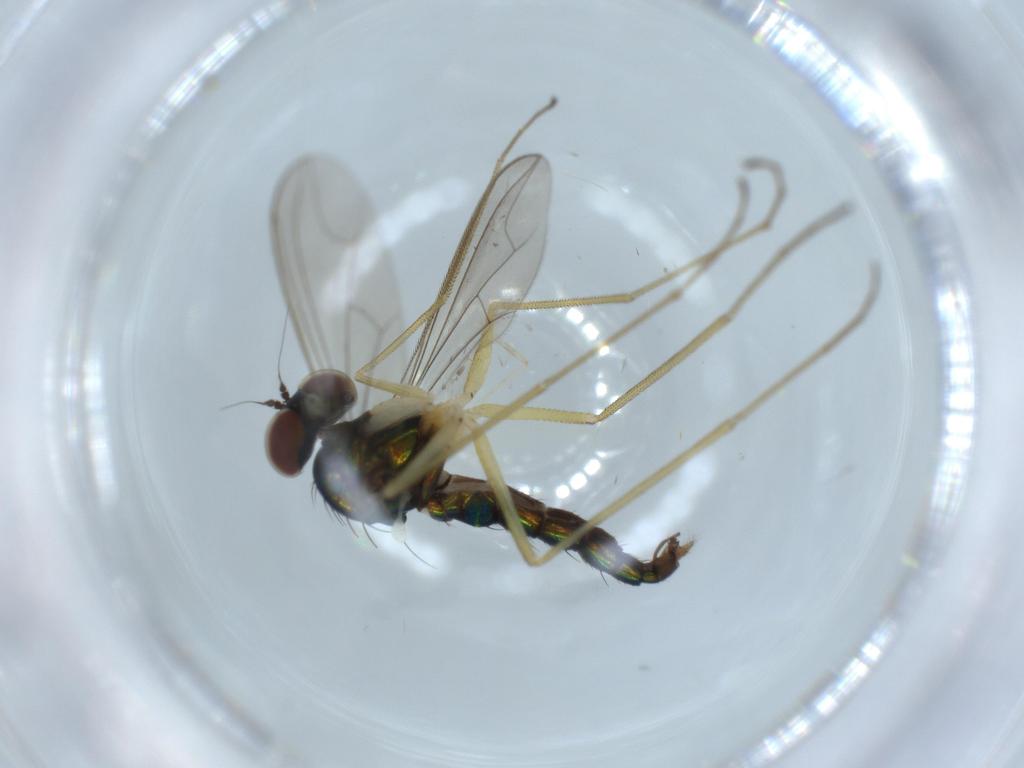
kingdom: Animalia
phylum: Arthropoda
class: Insecta
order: Diptera
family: Dolichopodidae
